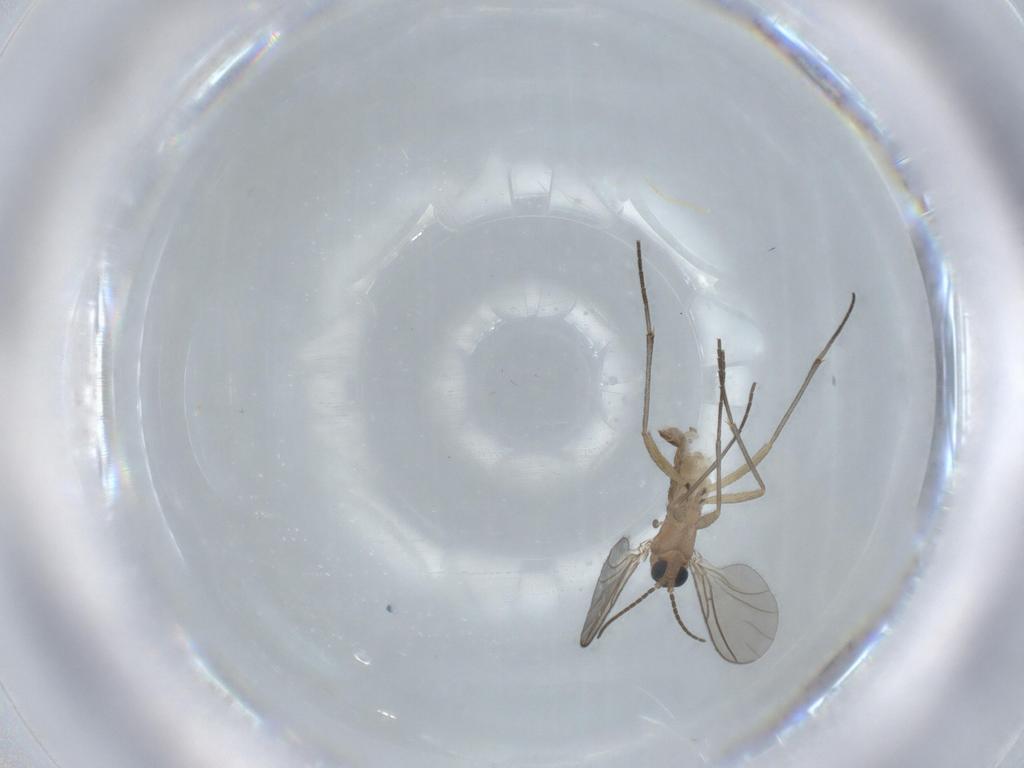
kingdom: Animalia
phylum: Arthropoda
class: Insecta
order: Diptera
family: Sciaridae
